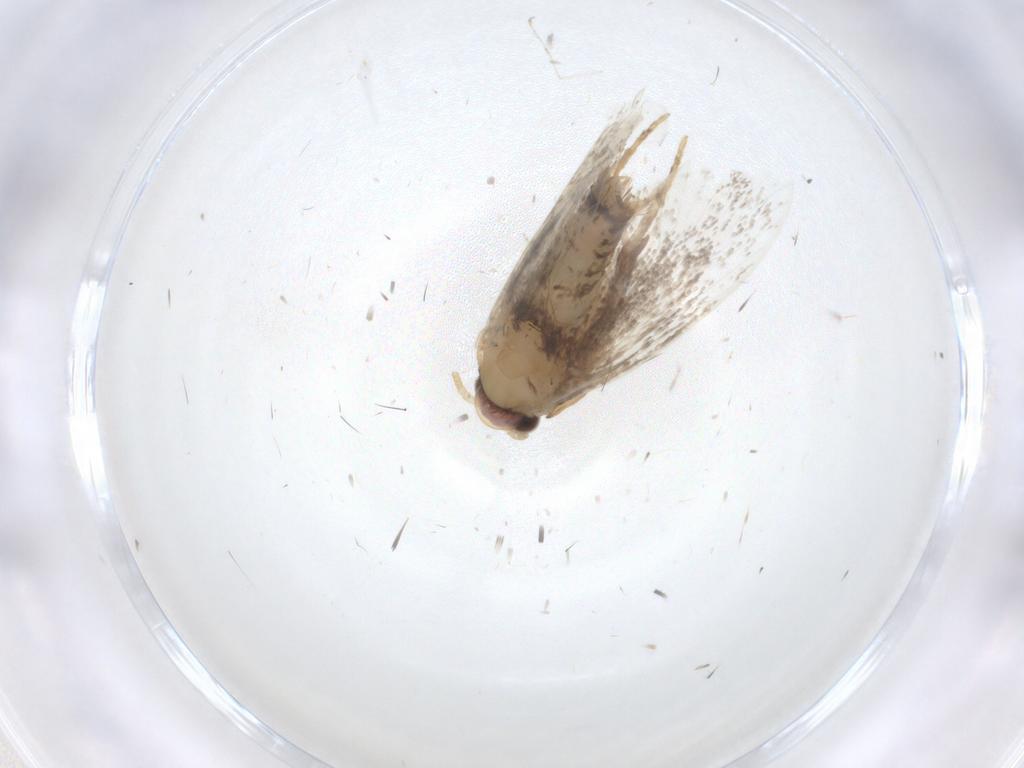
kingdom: Animalia
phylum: Arthropoda
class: Insecta
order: Lepidoptera
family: Tineidae
